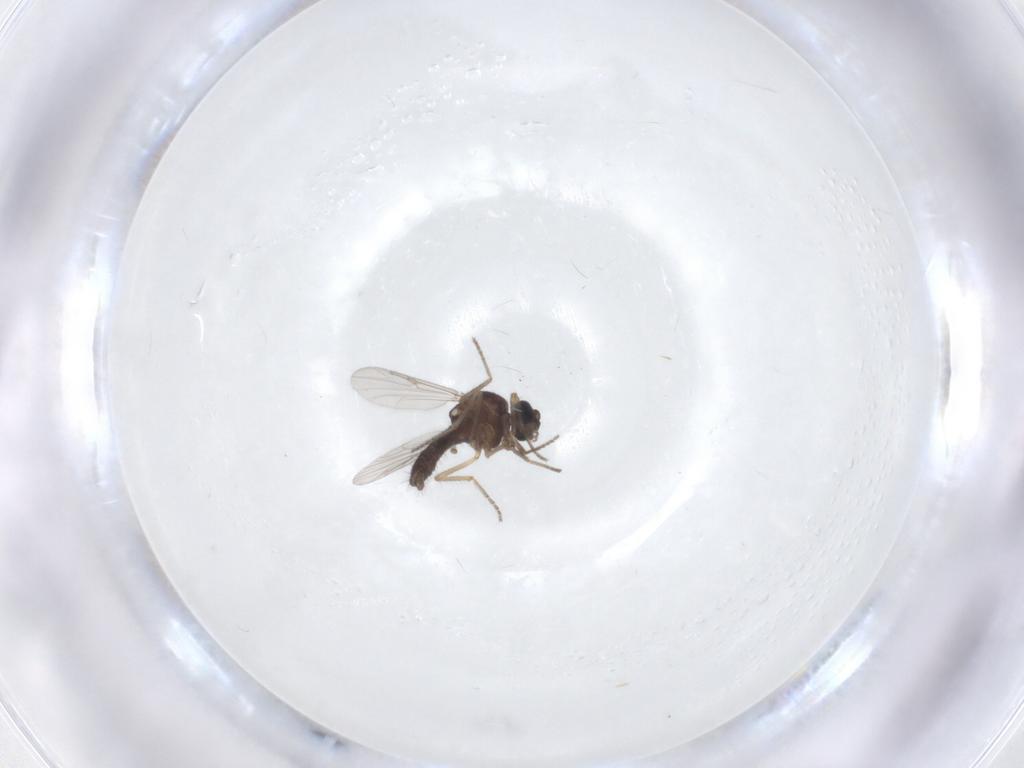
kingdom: Animalia
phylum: Arthropoda
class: Insecta
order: Diptera
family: Ceratopogonidae
